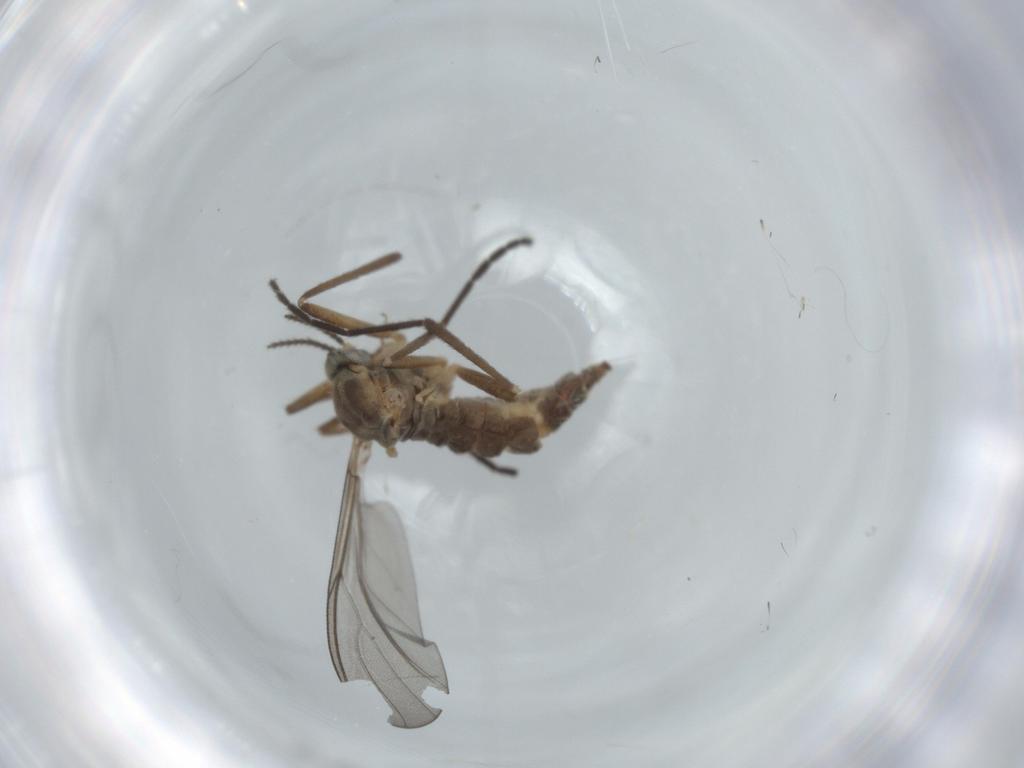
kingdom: Animalia
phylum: Arthropoda
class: Insecta
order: Diptera
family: Cecidomyiidae
